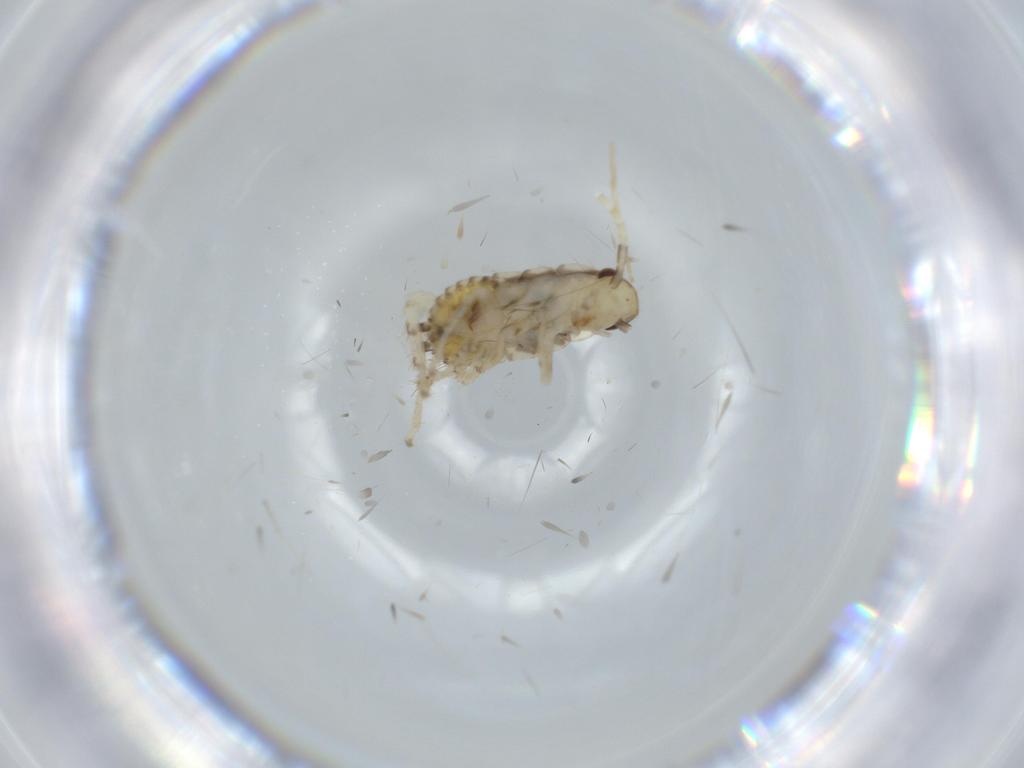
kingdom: Animalia
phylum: Arthropoda
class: Insecta
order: Blattodea
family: Ectobiidae
